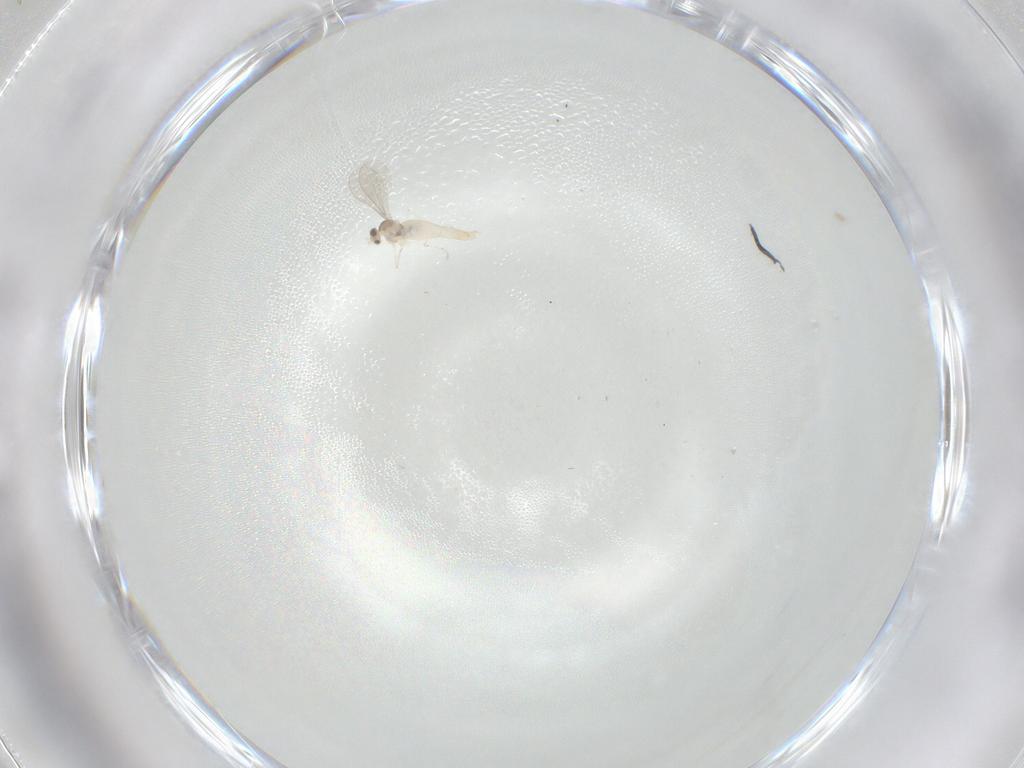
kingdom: Animalia
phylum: Arthropoda
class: Insecta
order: Diptera
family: Cecidomyiidae
